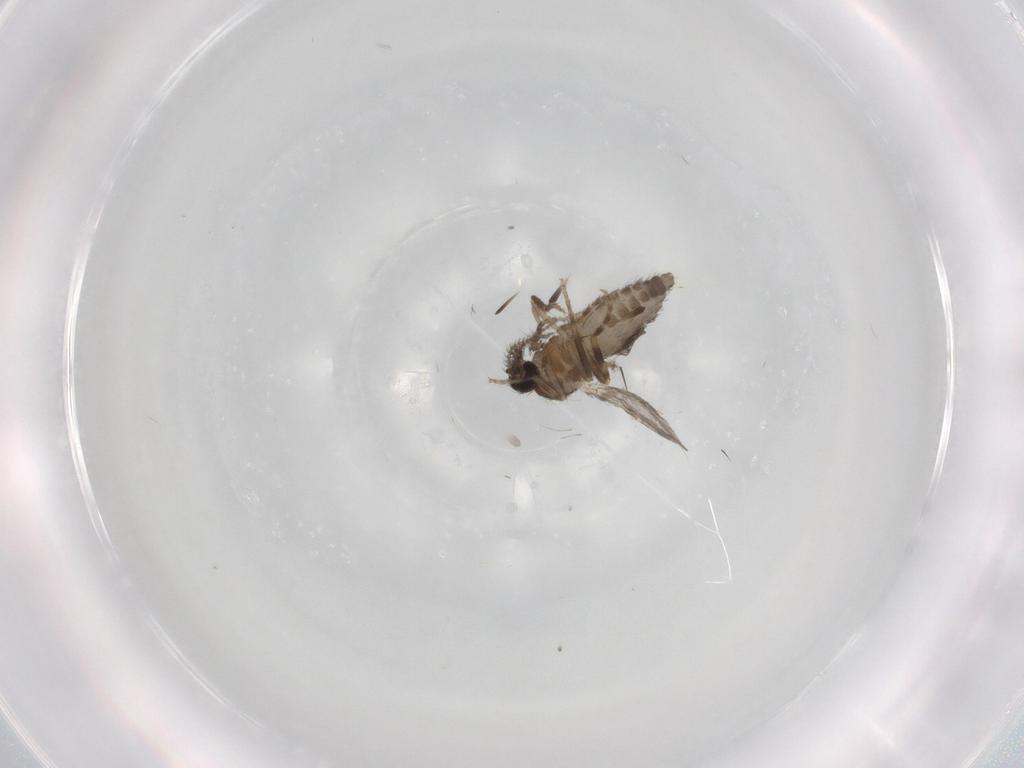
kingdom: Animalia
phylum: Arthropoda
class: Insecta
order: Diptera
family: Ceratopogonidae
